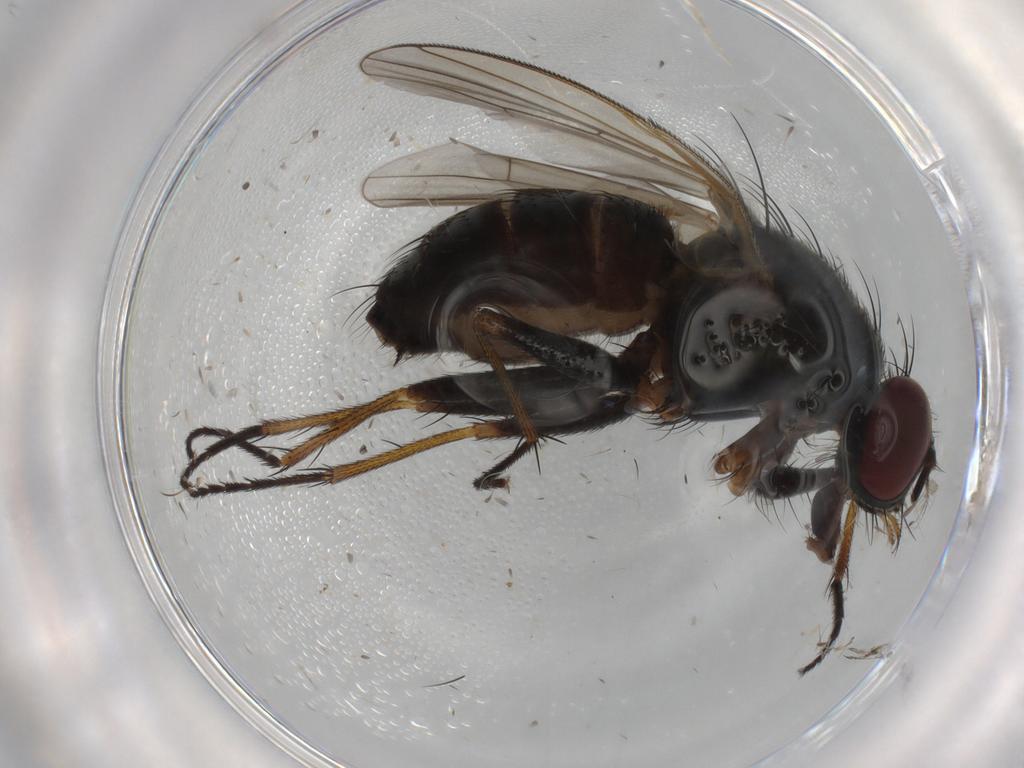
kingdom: Animalia
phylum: Arthropoda
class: Insecta
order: Diptera
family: Muscidae
